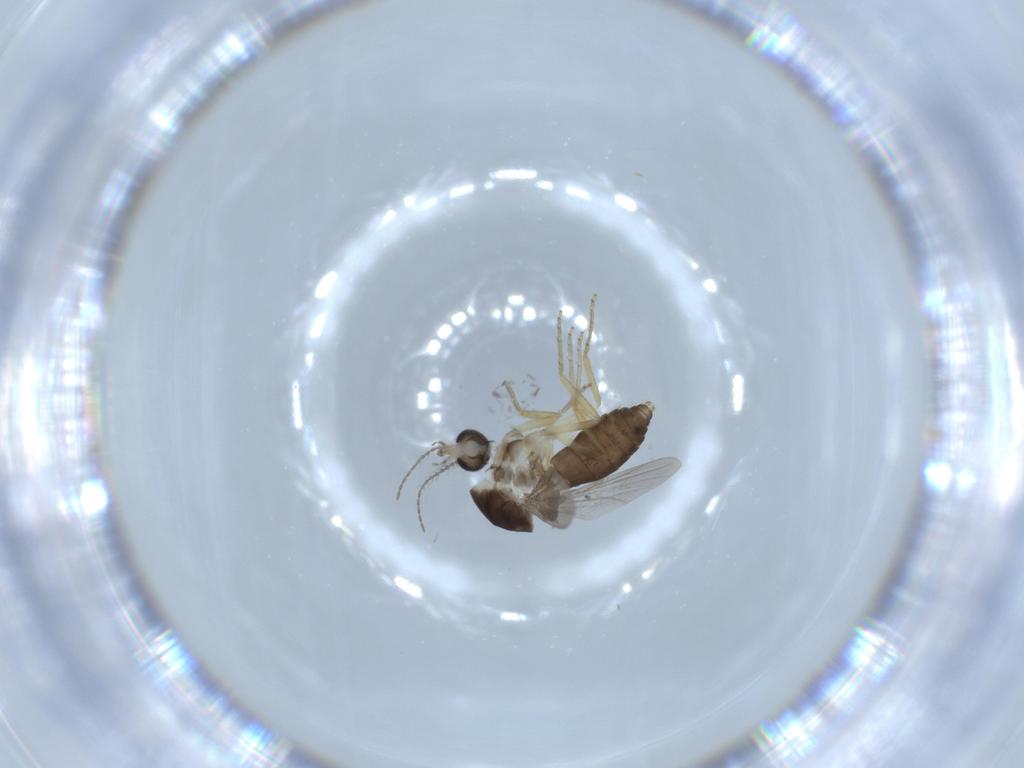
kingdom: Animalia
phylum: Arthropoda
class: Insecta
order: Diptera
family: Ceratopogonidae
